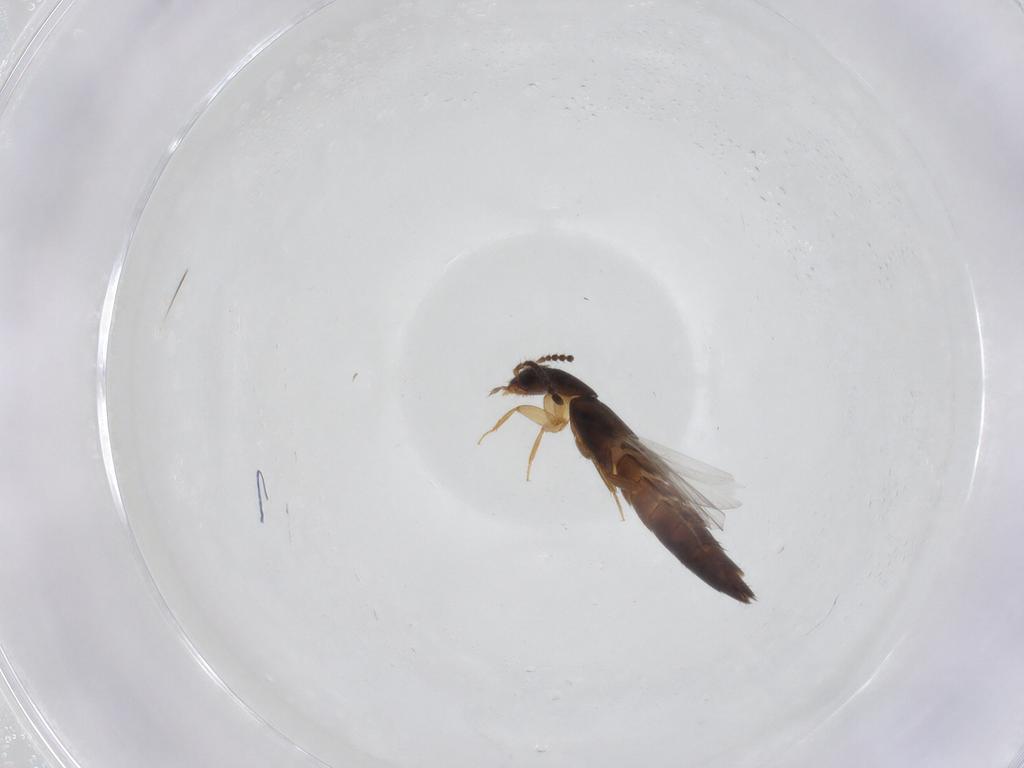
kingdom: Animalia
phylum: Arthropoda
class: Insecta
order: Coleoptera
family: Staphylinidae
